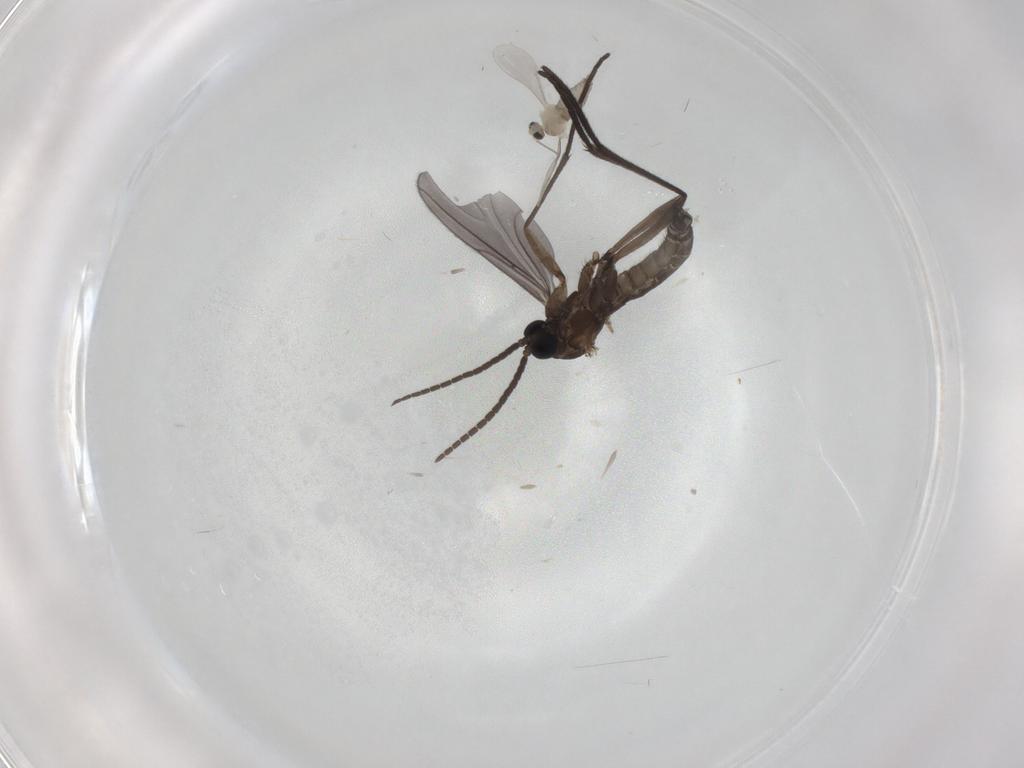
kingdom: Animalia
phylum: Arthropoda
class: Insecta
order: Diptera
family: Sciaridae
